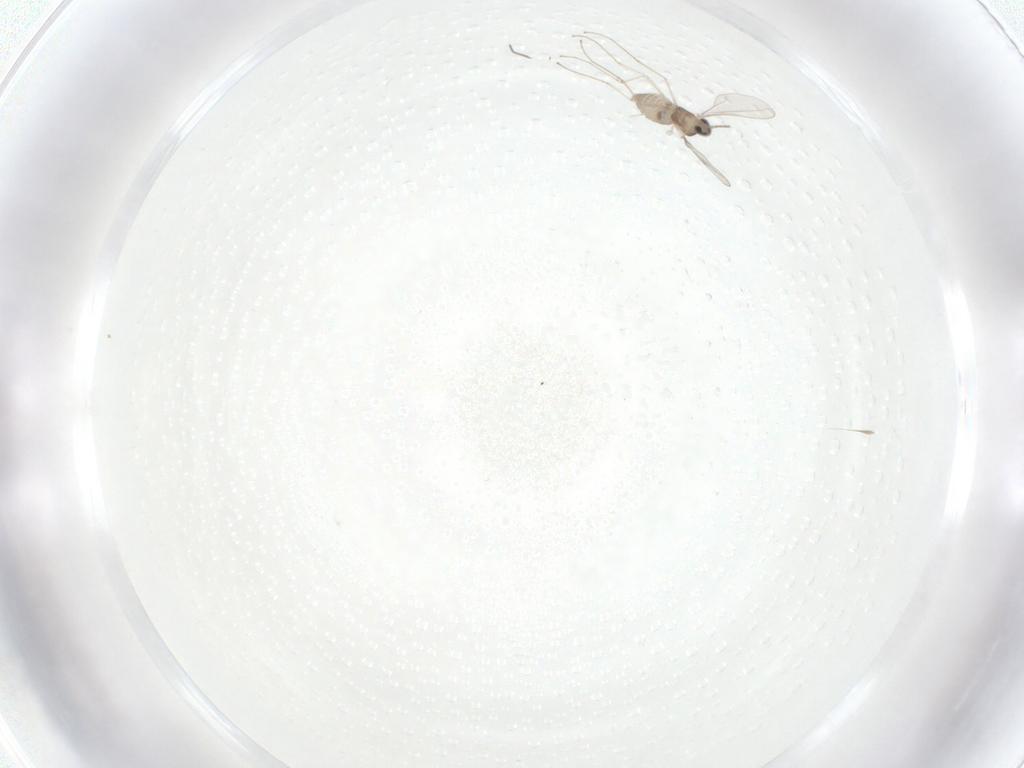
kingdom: Animalia
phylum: Arthropoda
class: Insecta
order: Diptera
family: Cecidomyiidae
